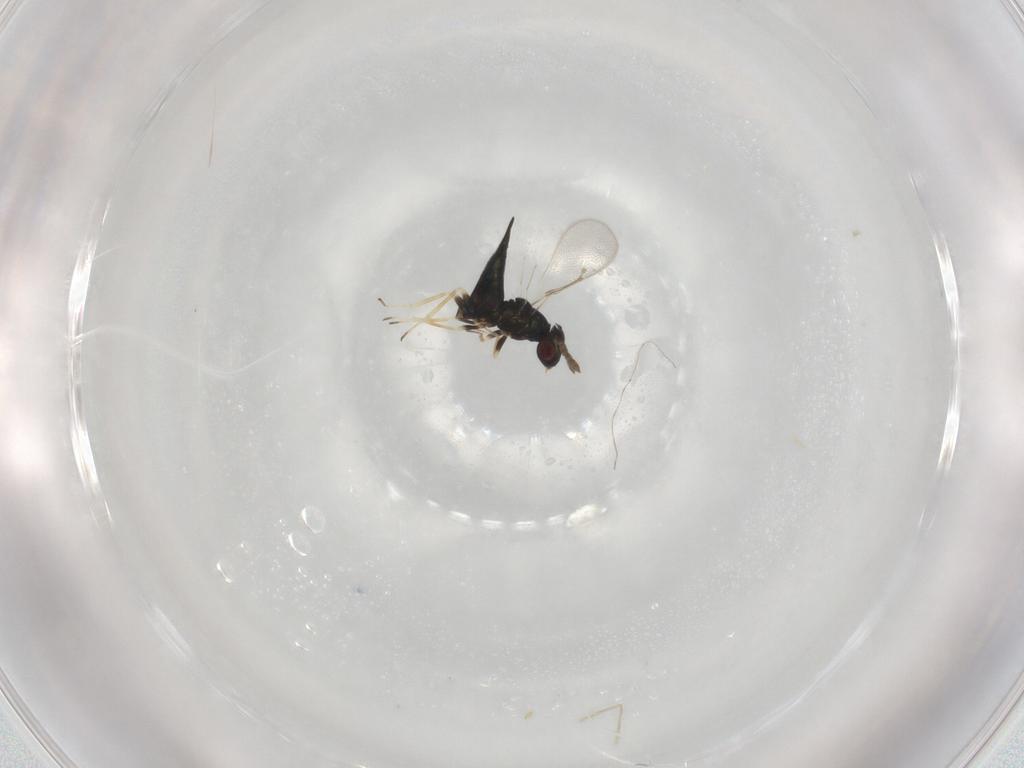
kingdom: Animalia
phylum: Arthropoda
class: Insecta
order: Hymenoptera
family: Eulophidae
